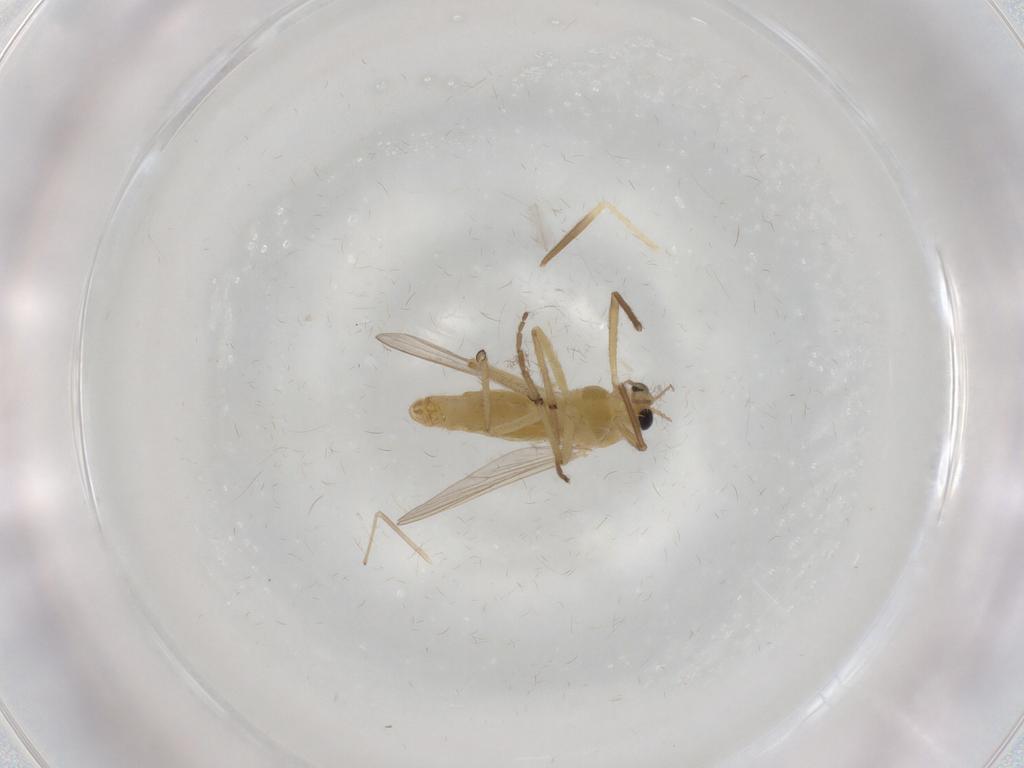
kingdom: Animalia
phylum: Arthropoda
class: Insecta
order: Diptera
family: Chironomidae
